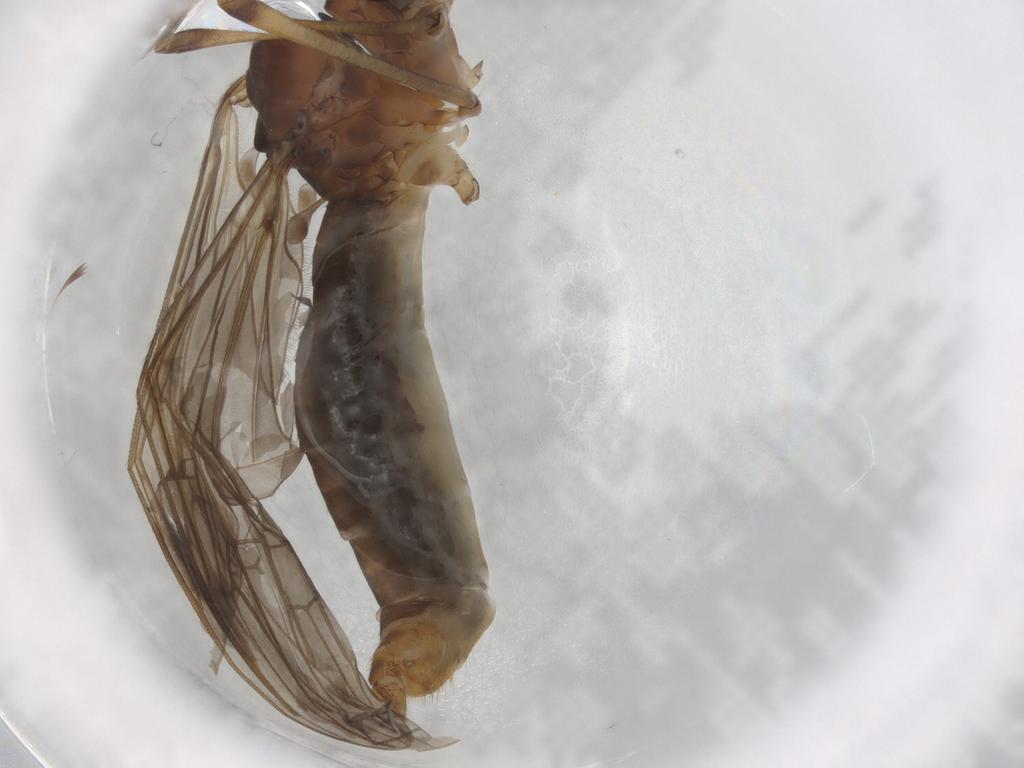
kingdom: Animalia
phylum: Arthropoda
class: Insecta
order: Diptera
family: Limoniidae
